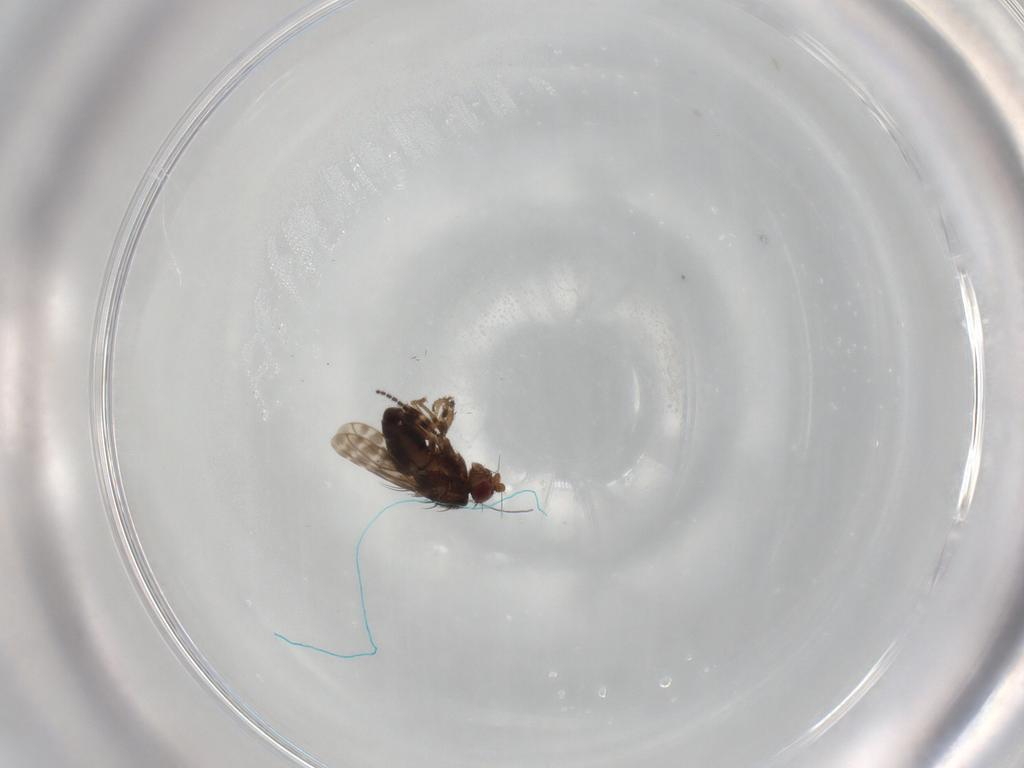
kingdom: Animalia
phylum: Arthropoda
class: Insecta
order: Diptera
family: Sphaeroceridae
